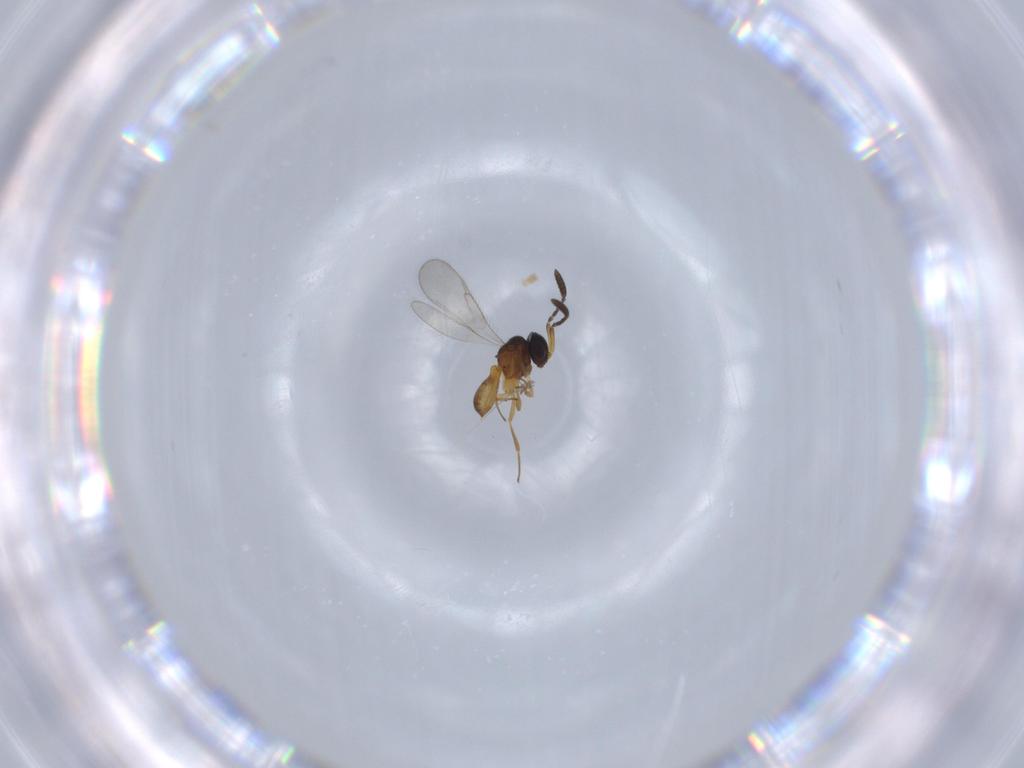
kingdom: Animalia
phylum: Arthropoda
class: Insecta
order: Hymenoptera
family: Scelionidae
